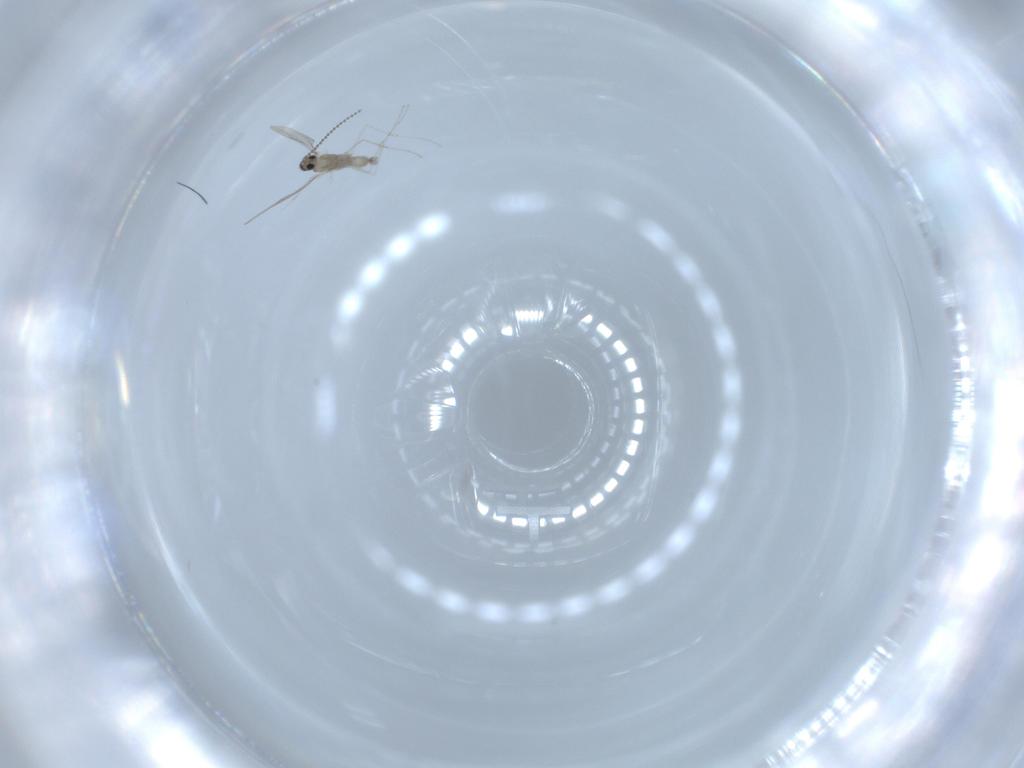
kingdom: Animalia
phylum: Arthropoda
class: Insecta
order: Diptera
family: Cecidomyiidae
